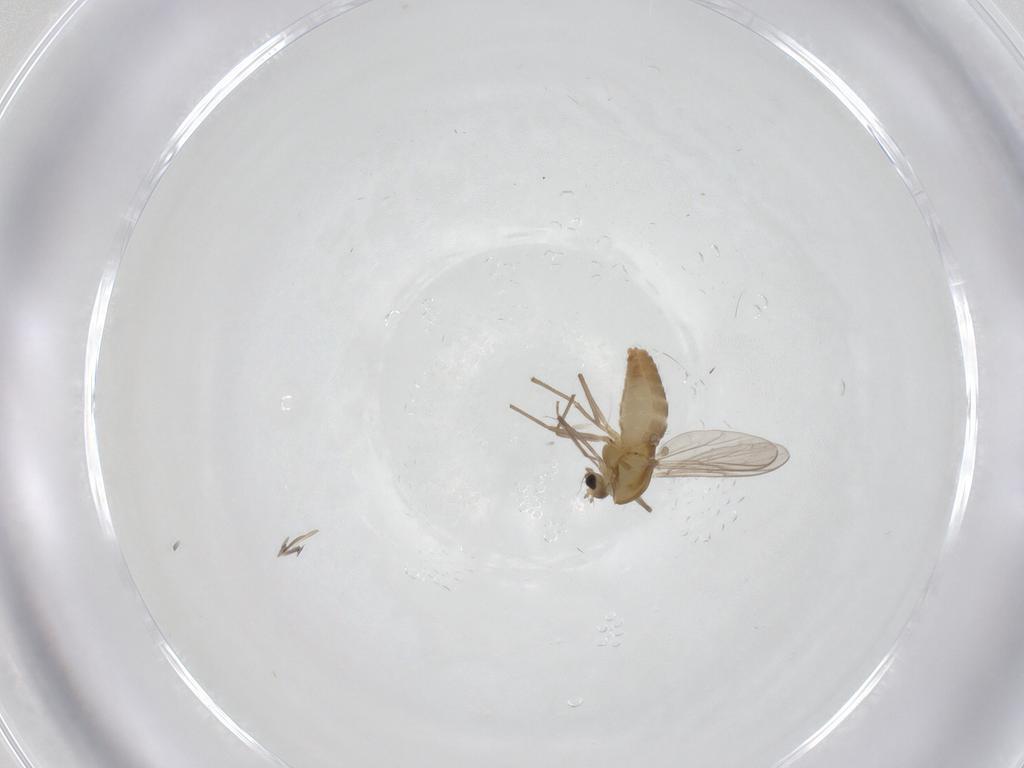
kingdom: Animalia
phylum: Arthropoda
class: Insecta
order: Diptera
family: Chironomidae
